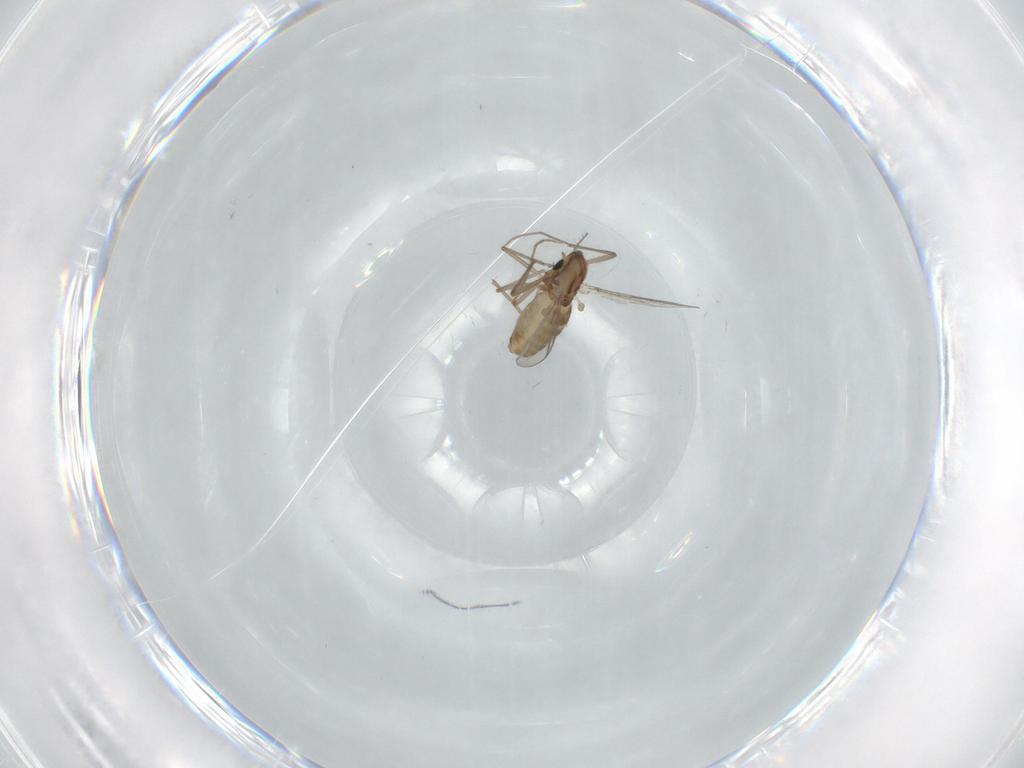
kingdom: Animalia
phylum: Arthropoda
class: Insecta
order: Diptera
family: Chironomidae
